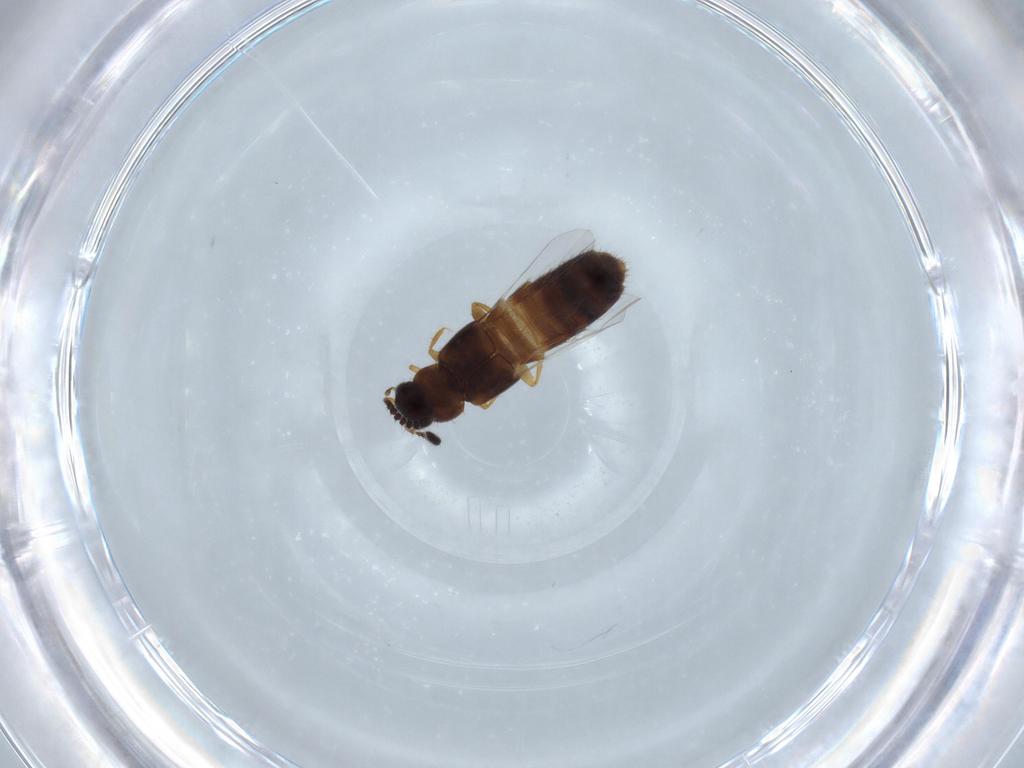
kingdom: Animalia
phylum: Arthropoda
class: Insecta
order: Coleoptera
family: Staphylinidae
